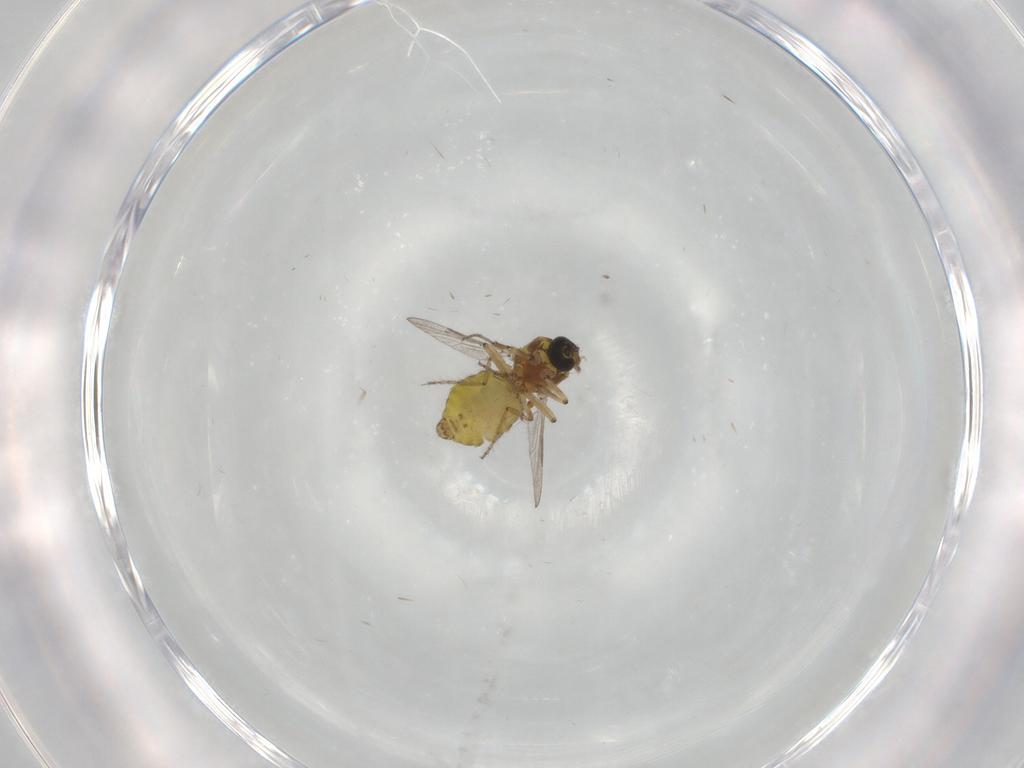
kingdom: Animalia
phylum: Arthropoda
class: Insecta
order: Diptera
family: Ceratopogonidae
